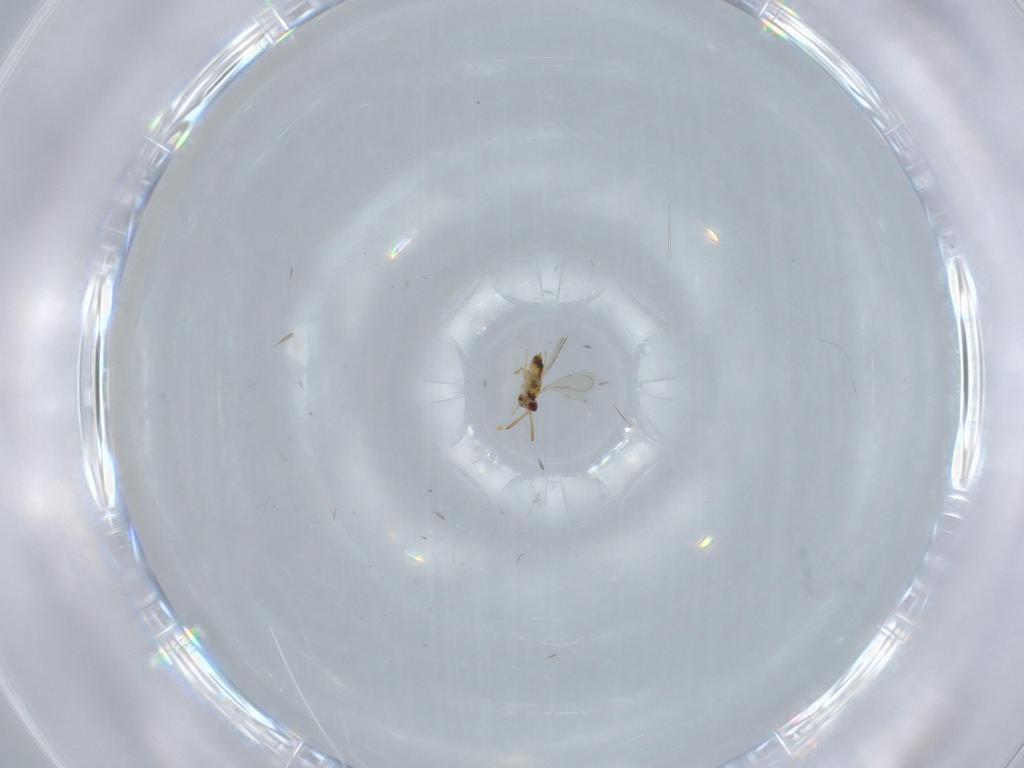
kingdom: Animalia
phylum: Arthropoda
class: Insecta
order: Hymenoptera
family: Aphelinidae
